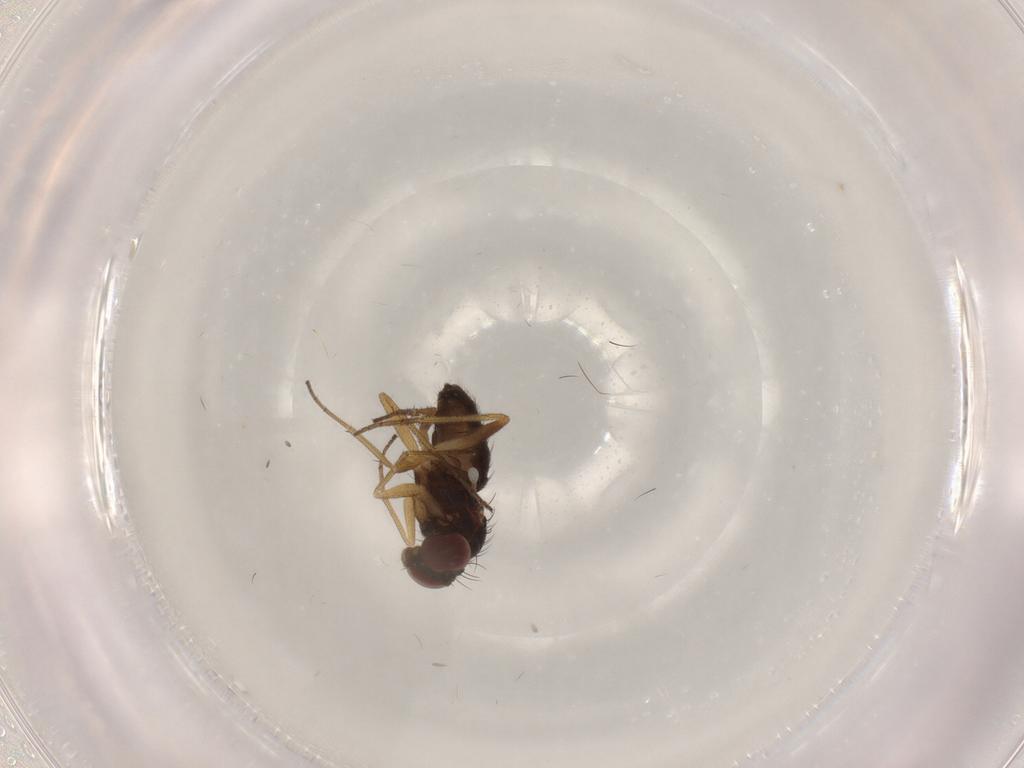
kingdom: Animalia
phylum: Arthropoda
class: Insecta
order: Diptera
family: Dolichopodidae
